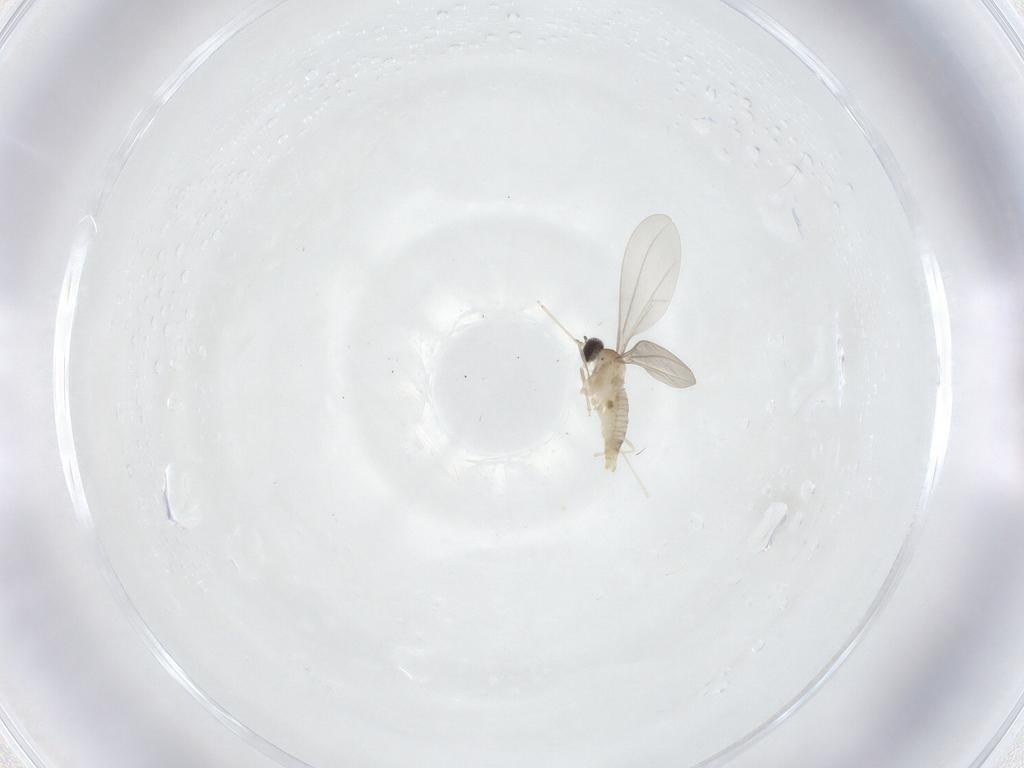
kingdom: Animalia
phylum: Arthropoda
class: Insecta
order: Diptera
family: Cecidomyiidae
